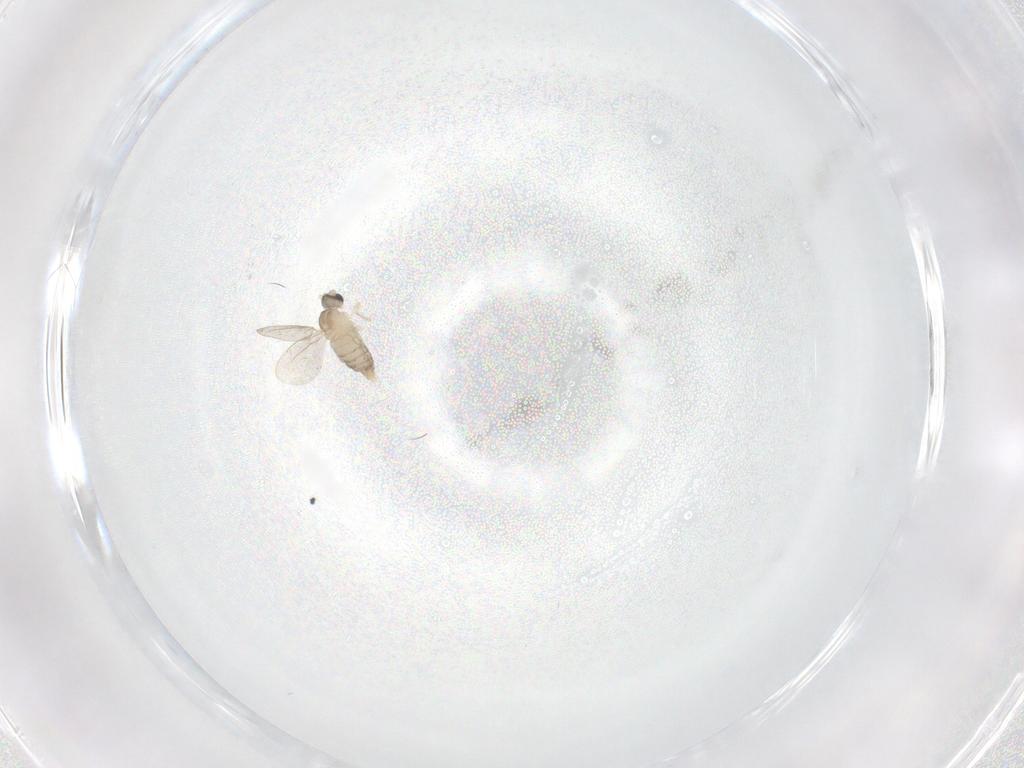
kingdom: Animalia
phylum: Arthropoda
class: Insecta
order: Diptera
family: Cecidomyiidae
